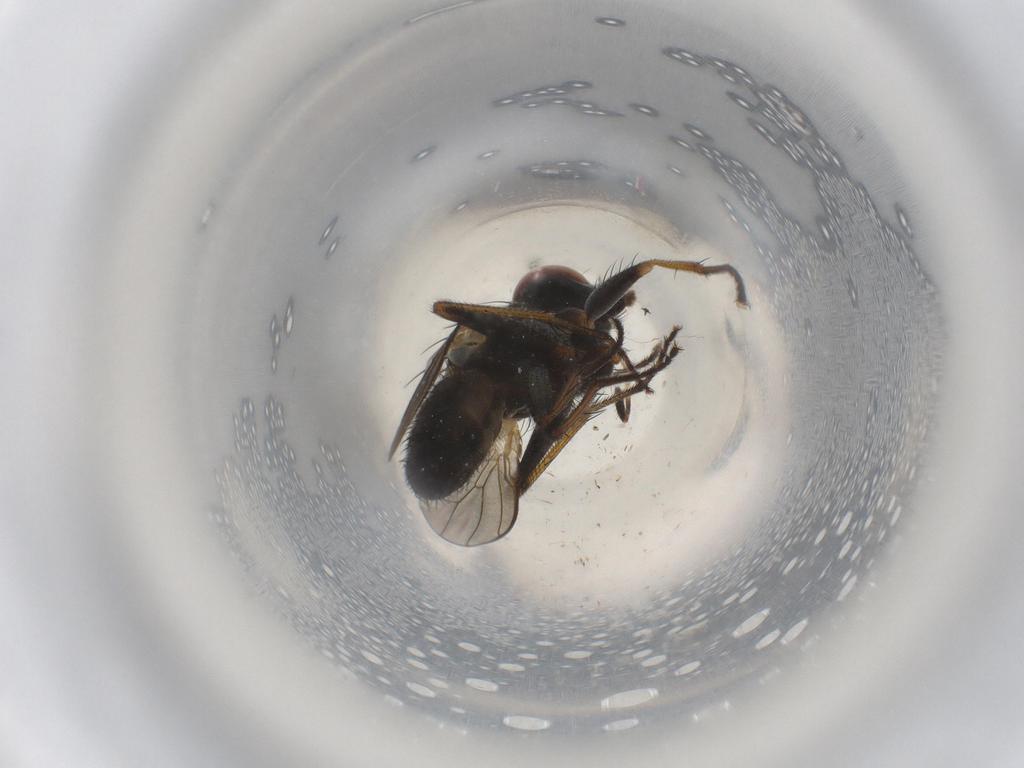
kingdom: Animalia
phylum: Arthropoda
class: Insecta
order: Diptera
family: Muscidae
